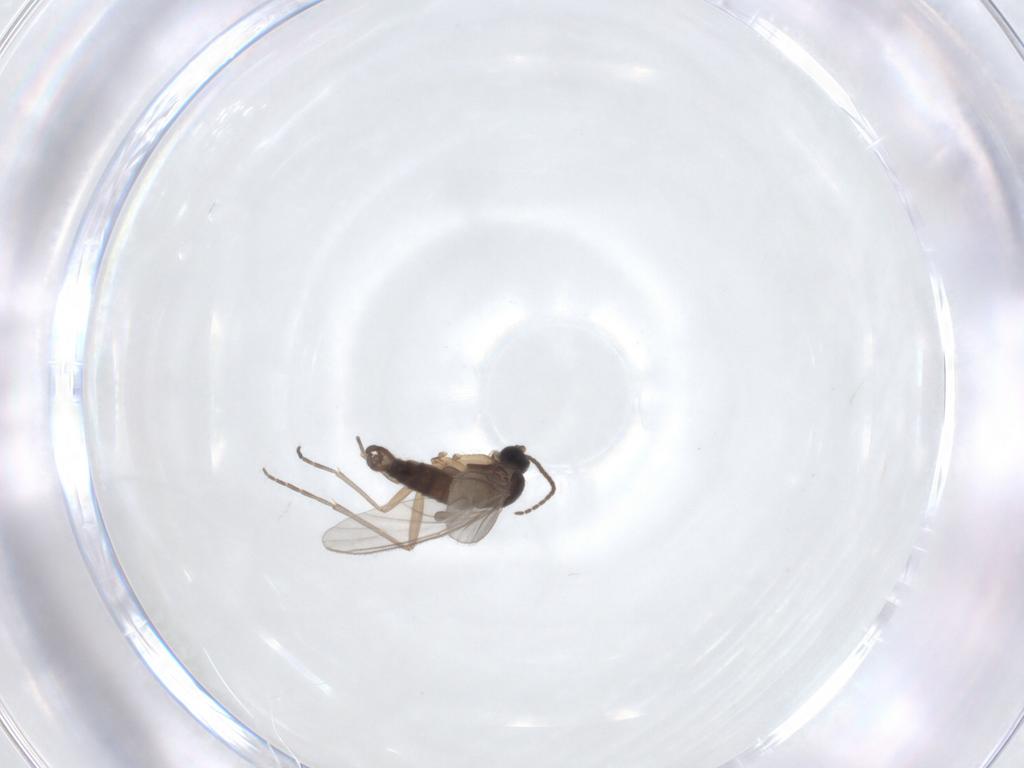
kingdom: Animalia
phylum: Arthropoda
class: Insecta
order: Diptera
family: Sciaridae
